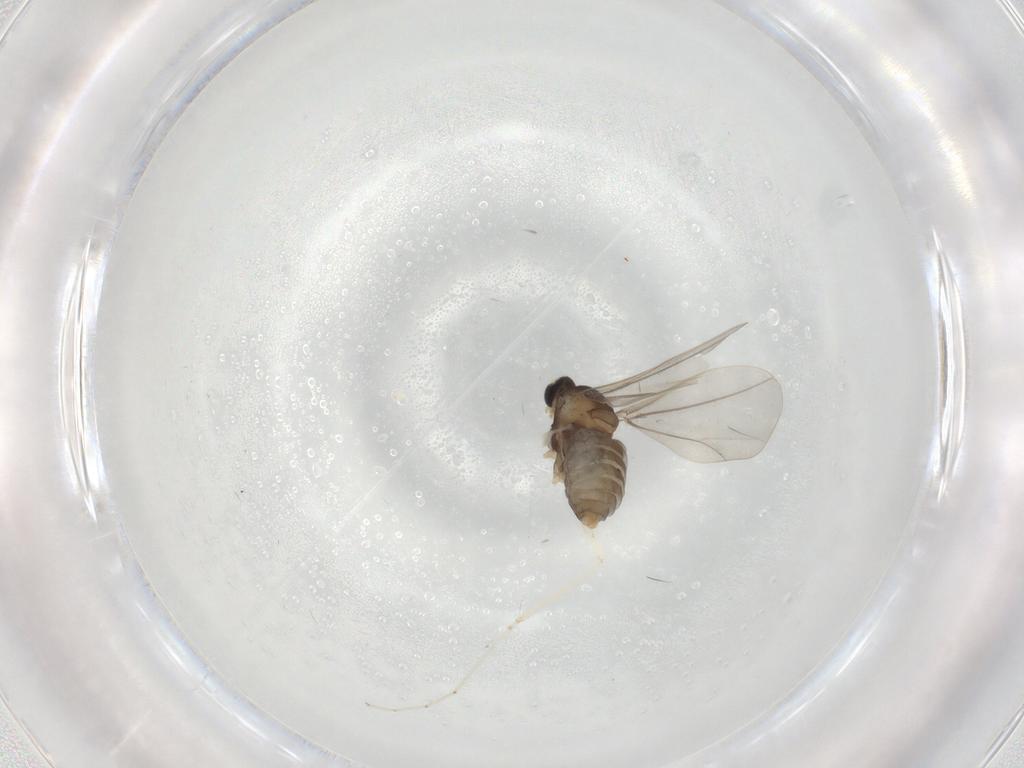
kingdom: Animalia
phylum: Arthropoda
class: Insecta
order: Diptera
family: Cecidomyiidae
